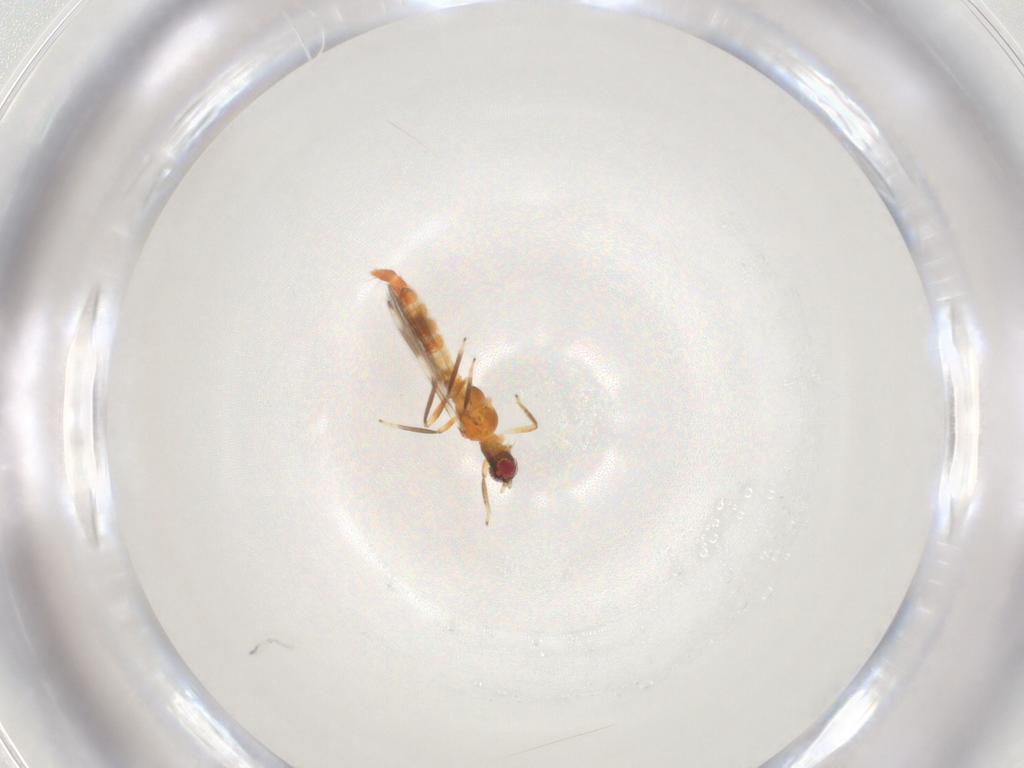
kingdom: Animalia
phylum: Arthropoda
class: Insecta
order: Thysanoptera
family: Aeolothripidae
